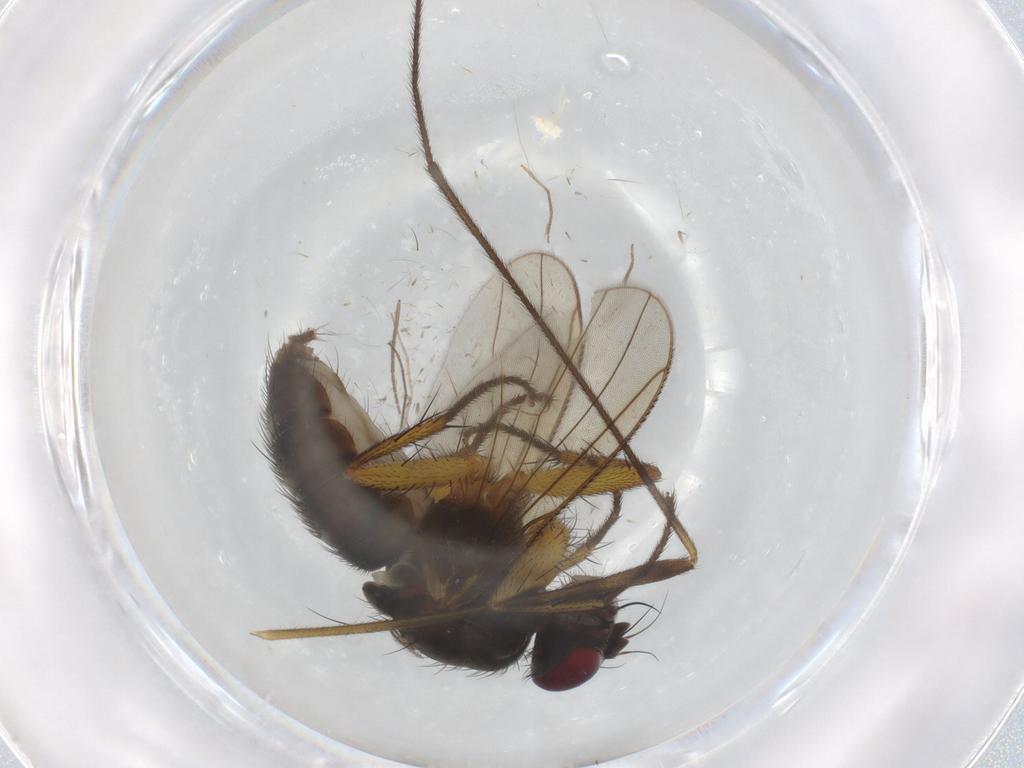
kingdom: Animalia
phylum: Arthropoda
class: Insecta
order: Diptera
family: Muscidae
